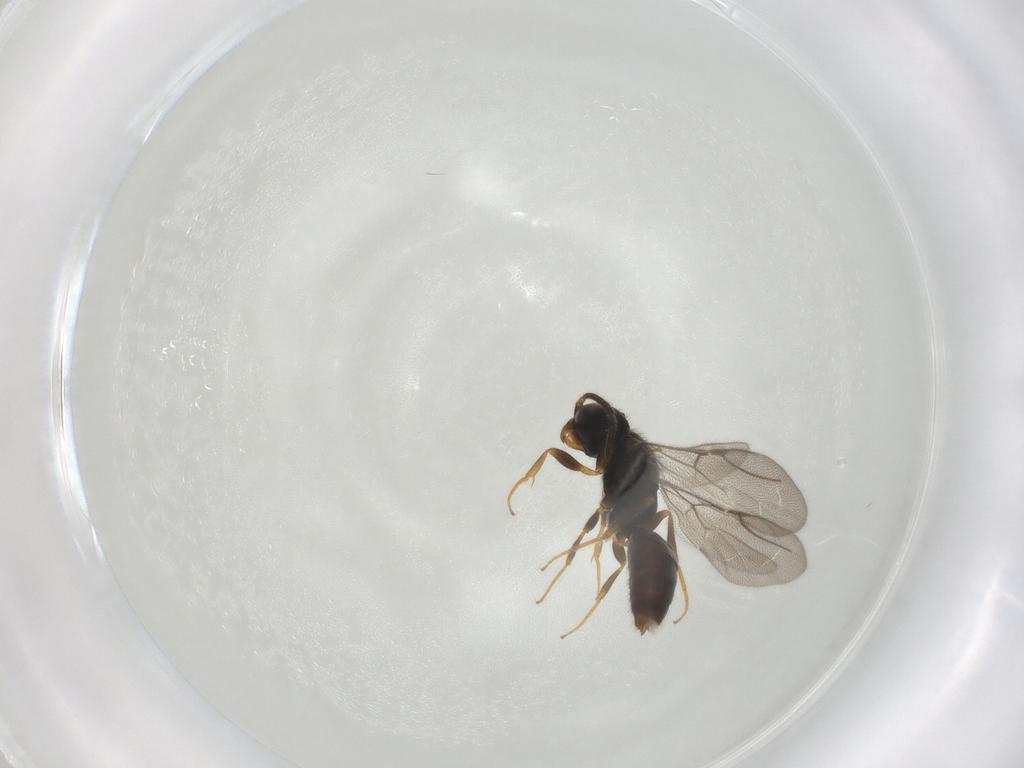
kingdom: Animalia
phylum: Arthropoda
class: Insecta
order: Hymenoptera
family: Bethylidae
